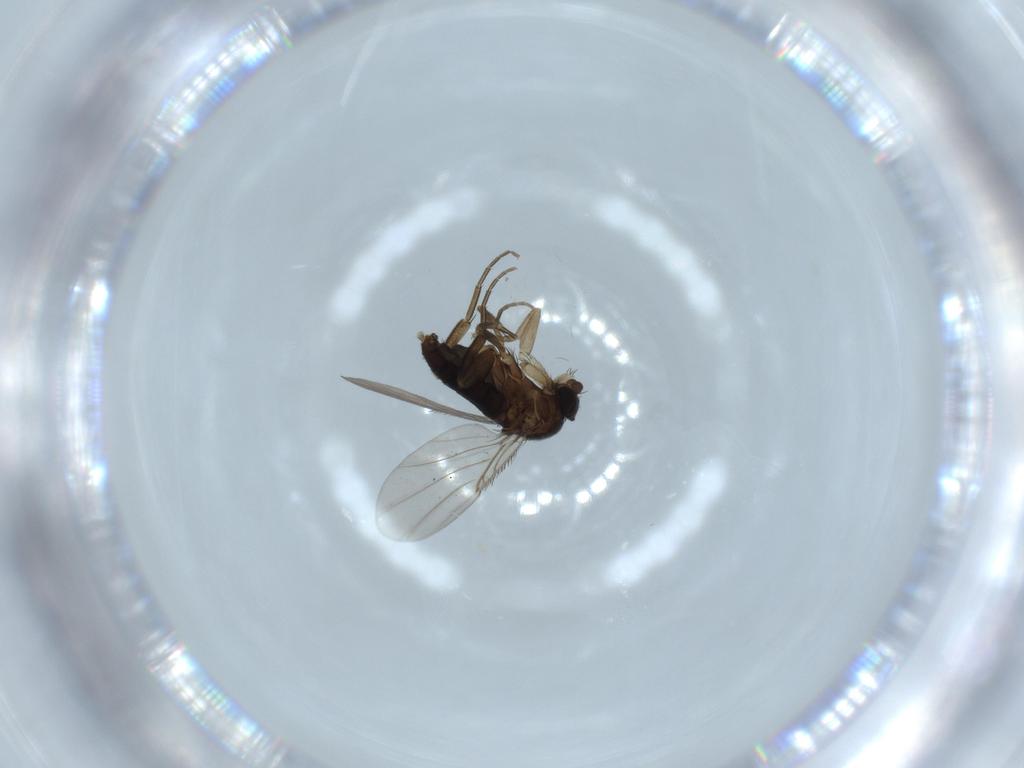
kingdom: Animalia
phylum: Arthropoda
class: Insecta
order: Diptera
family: Phoridae
